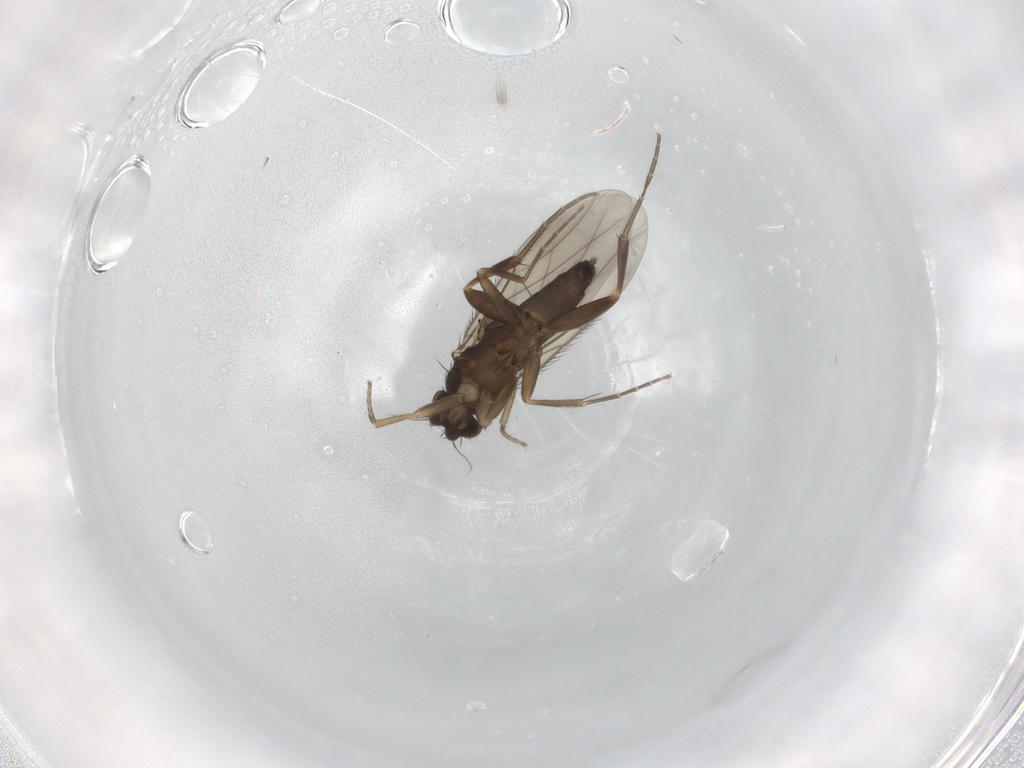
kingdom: Animalia
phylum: Arthropoda
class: Insecta
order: Diptera
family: Phoridae
